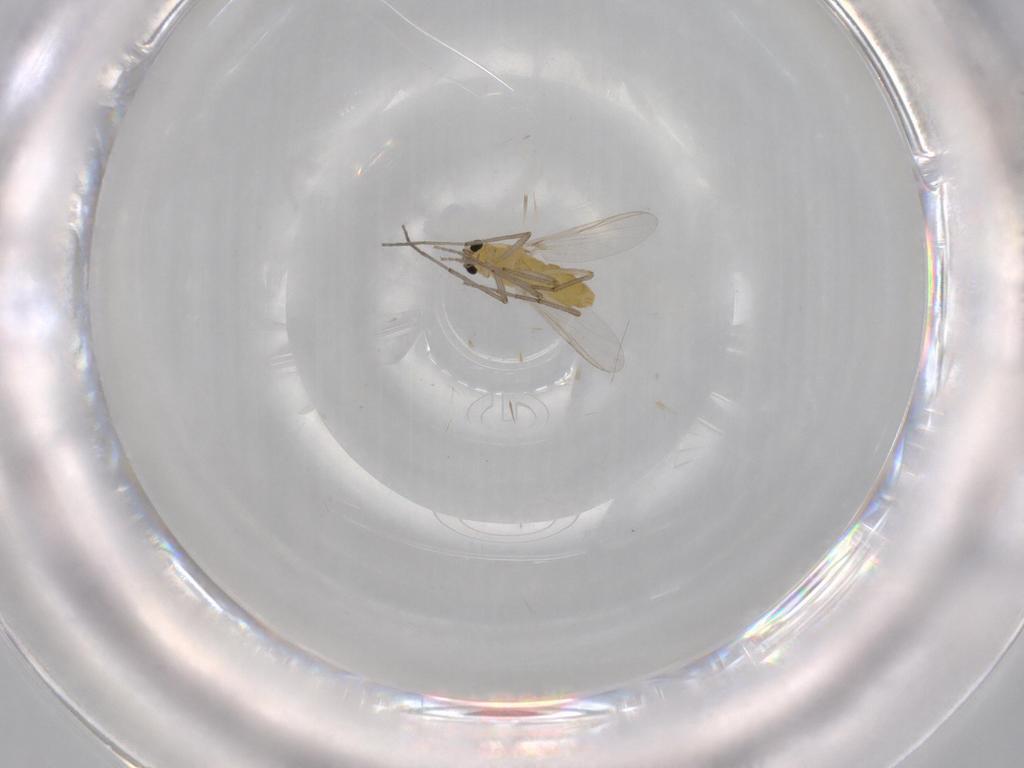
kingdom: Animalia
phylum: Arthropoda
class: Insecta
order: Diptera
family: Chironomidae
